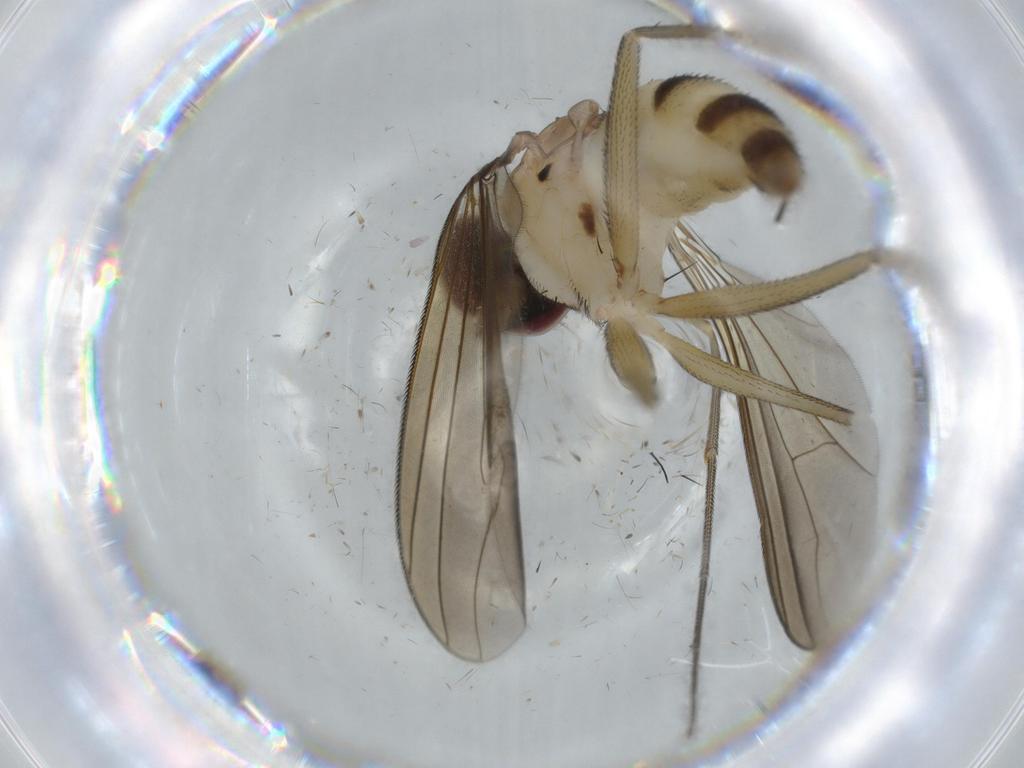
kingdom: Animalia
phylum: Arthropoda
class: Insecta
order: Diptera
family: Dolichopodidae
